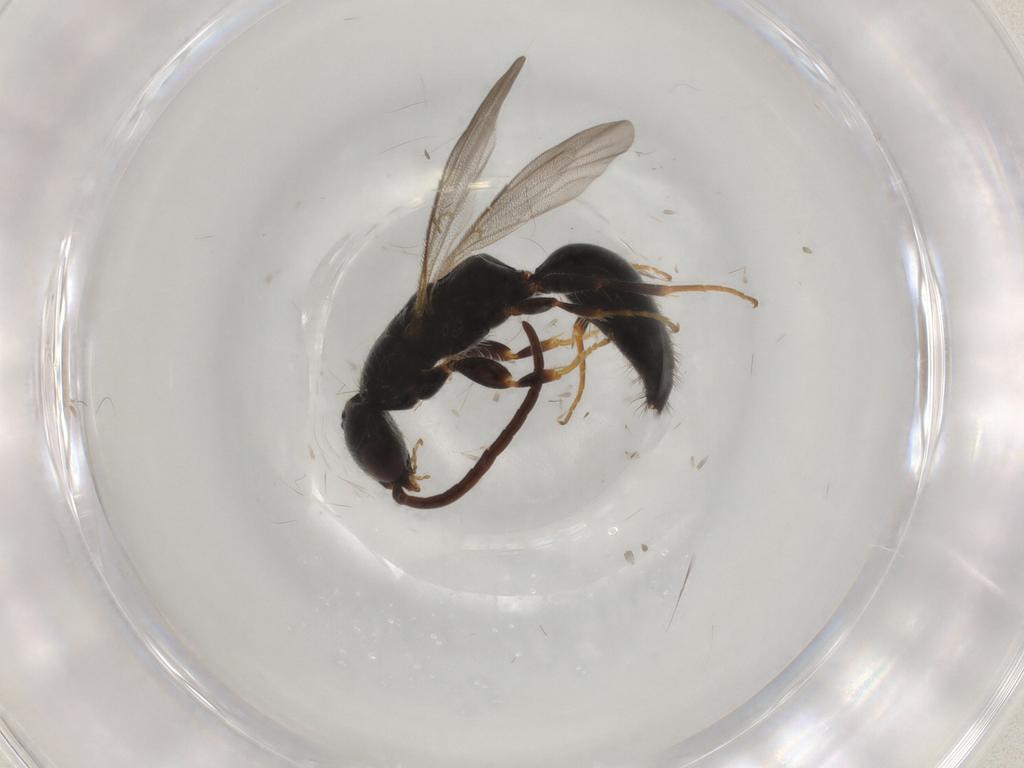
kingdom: Animalia
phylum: Arthropoda
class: Insecta
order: Hymenoptera
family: Bethylidae
